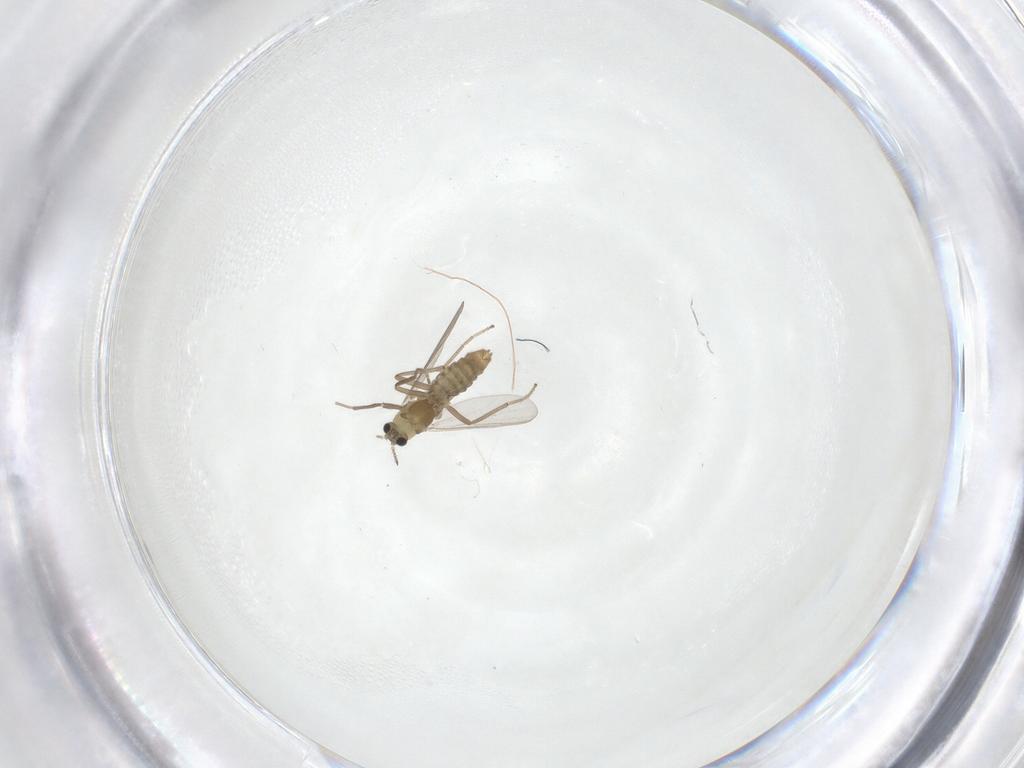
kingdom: Animalia
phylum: Arthropoda
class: Insecta
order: Diptera
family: Chironomidae
